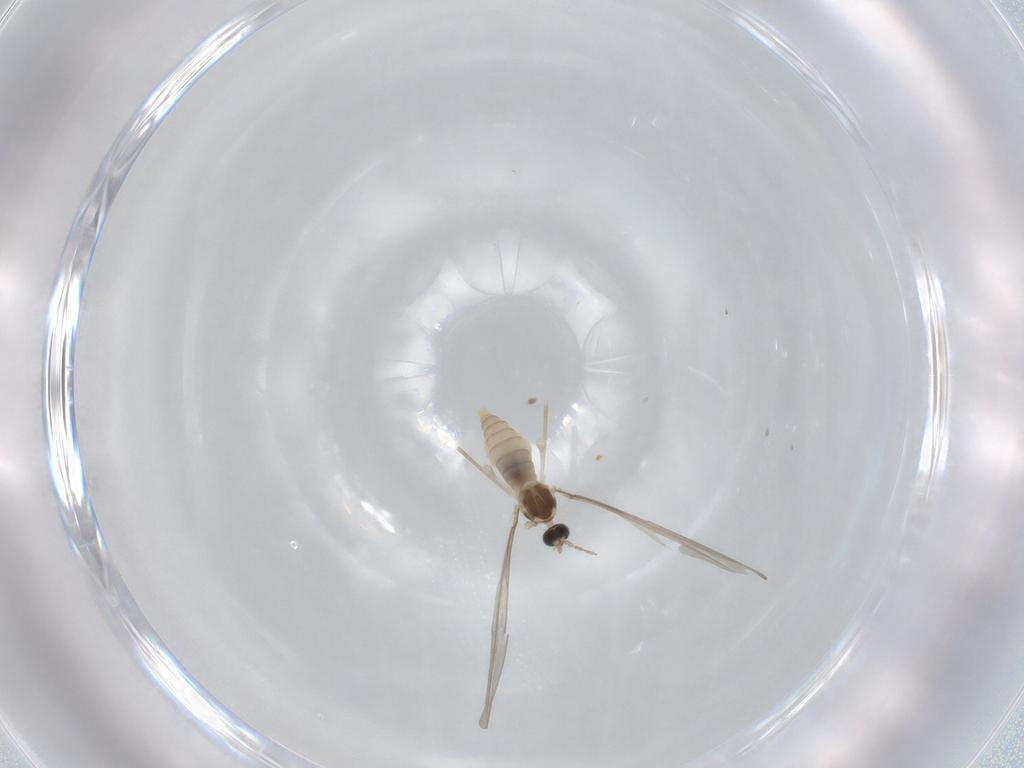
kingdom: Animalia
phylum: Arthropoda
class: Insecta
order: Diptera
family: Cecidomyiidae
